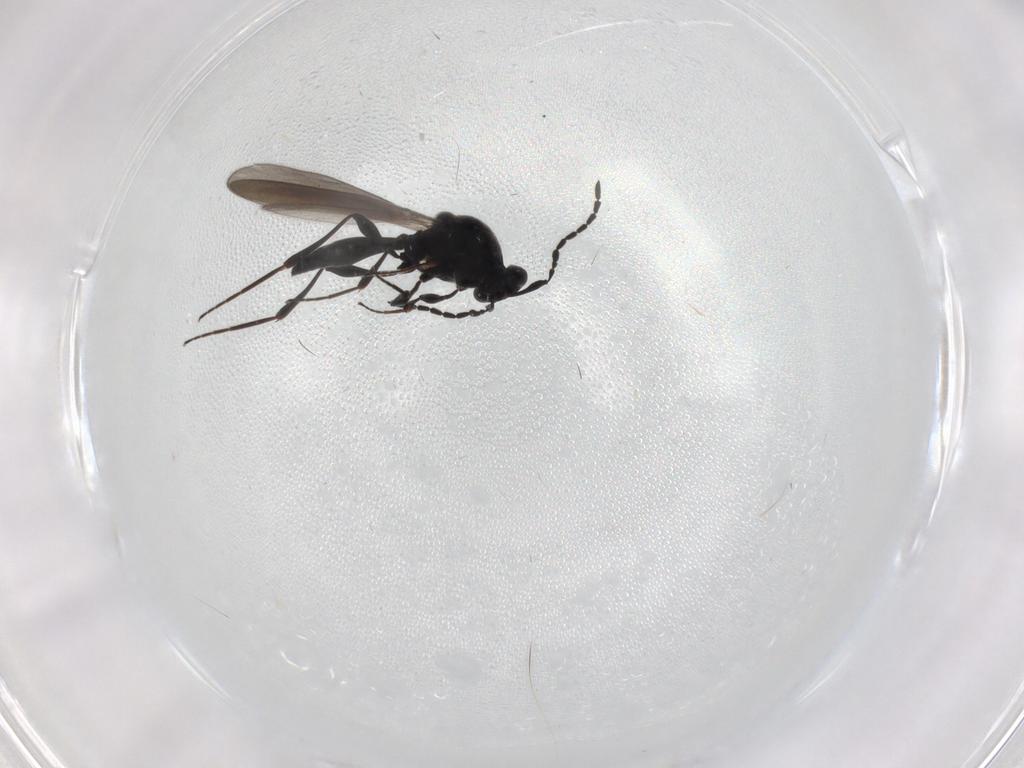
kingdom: Animalia
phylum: Arthropoda
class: Insecta
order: Hymenoptera
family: Platygastridae
